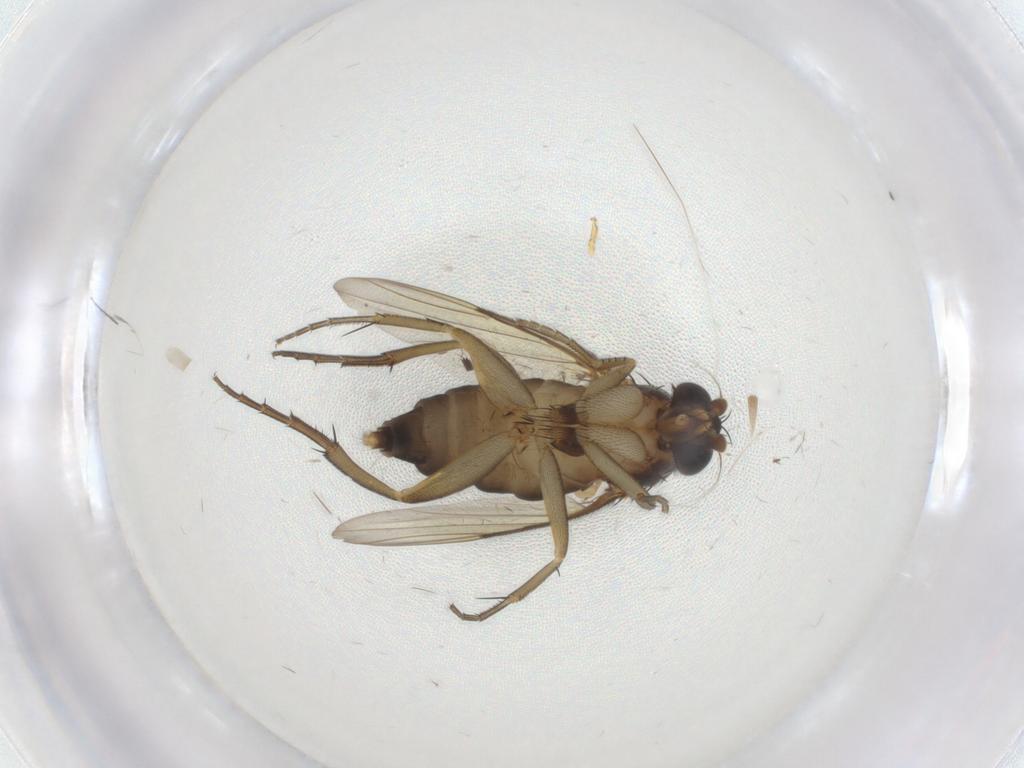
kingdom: Animalia
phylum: Arthropoda
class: Insecta
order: Diptera
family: Phoridae
